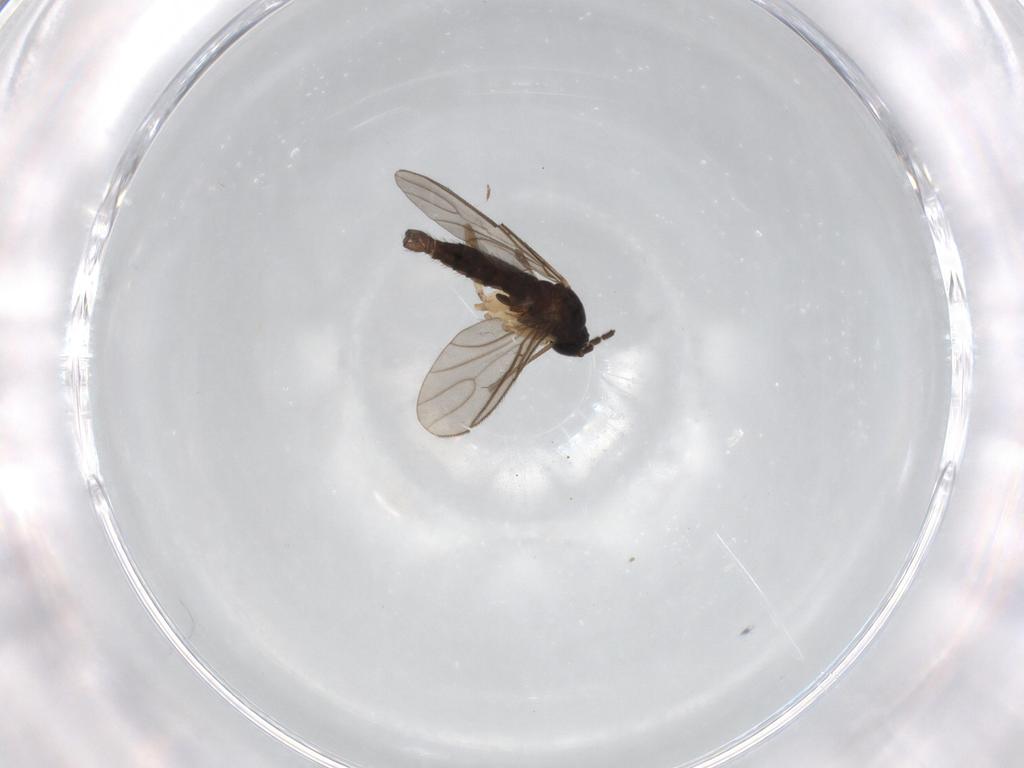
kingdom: Animalia
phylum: Arthropoda
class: Insecta
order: Diptera
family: Sciaridae
